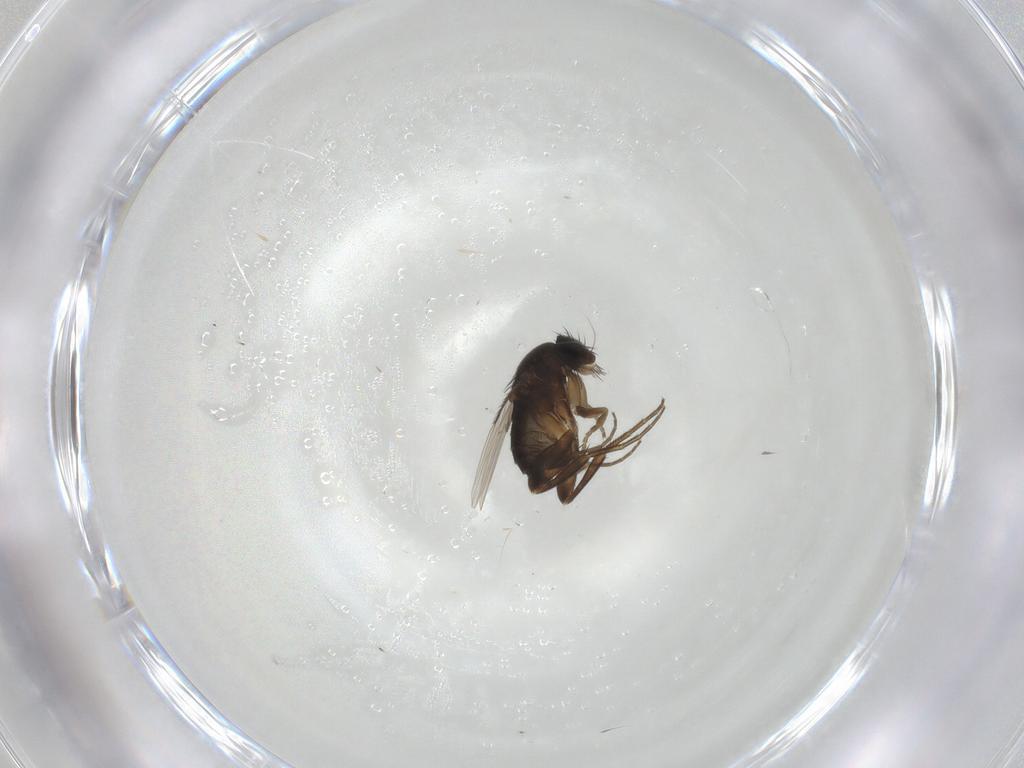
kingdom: Animalia
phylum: Arthropoda
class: Insecta
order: Diptera
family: Phoridae
